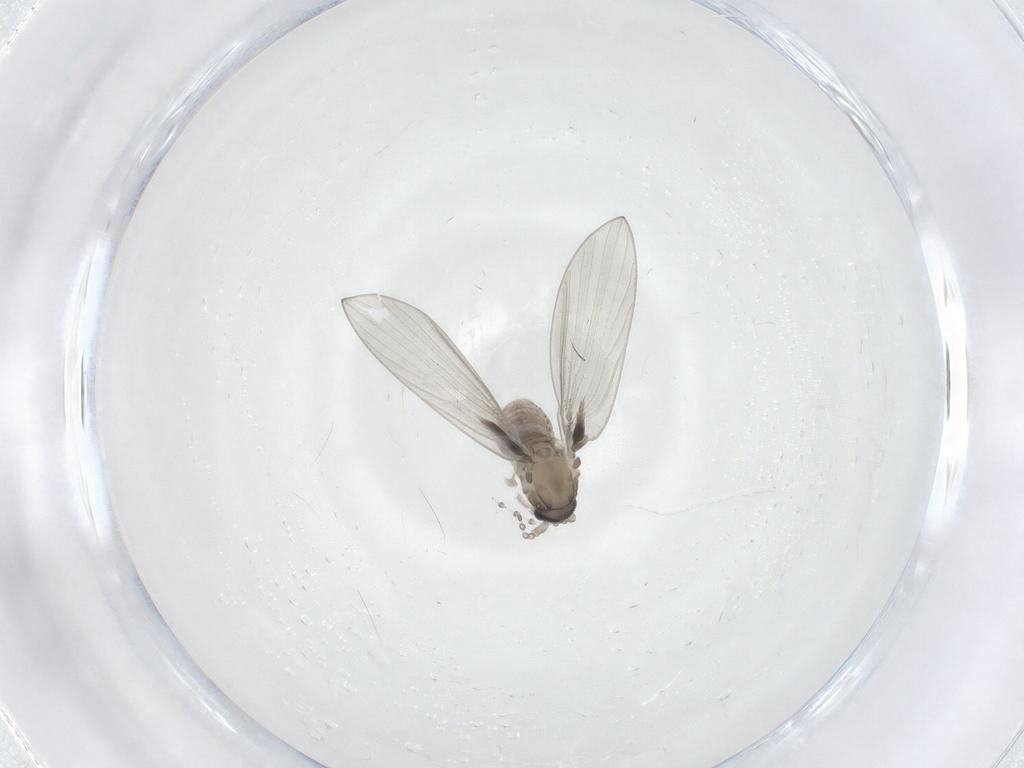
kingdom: Animalia
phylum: Arthropoda
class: Insecta
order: Diptera
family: Psychodidae
